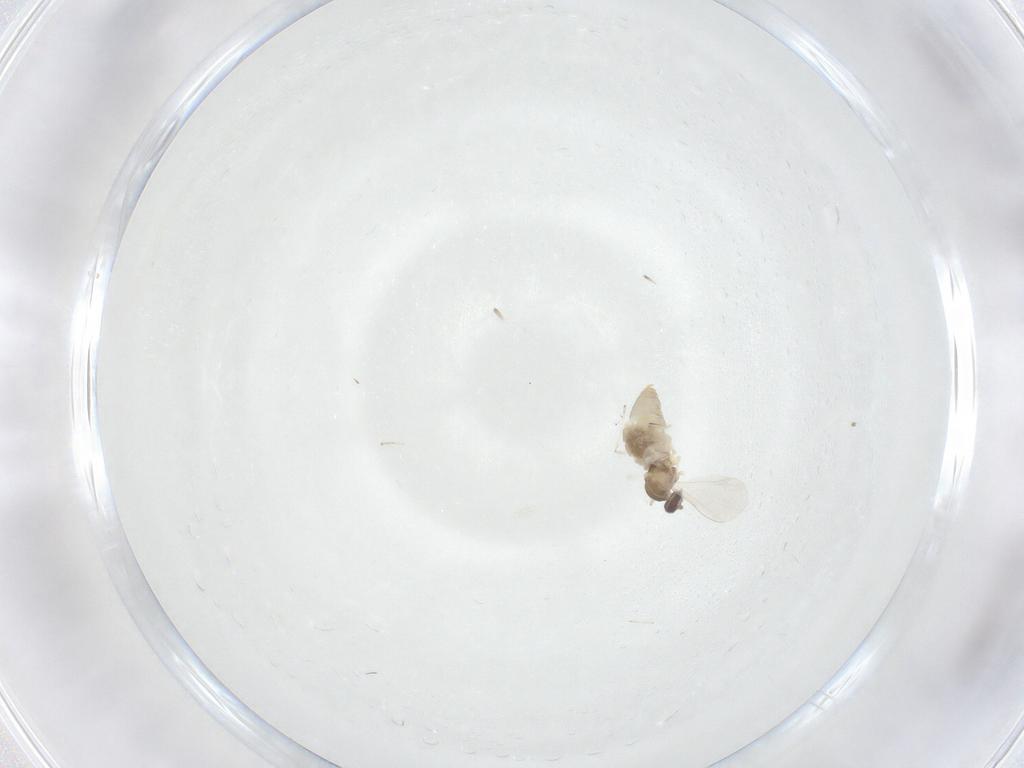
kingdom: Animalia
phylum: Arthropoda
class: Insecta
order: Diptera
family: Cecidomyiidae
